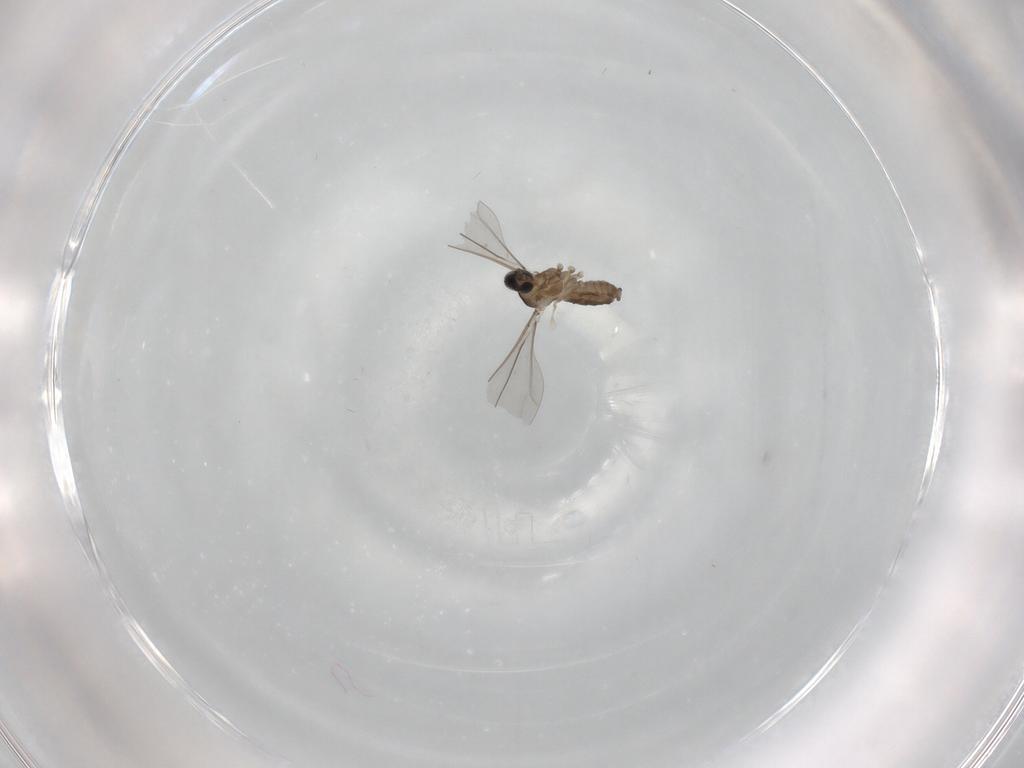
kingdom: Animalia
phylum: Arthropoda
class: Insecta
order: Diptera
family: Cecidomyiidae
